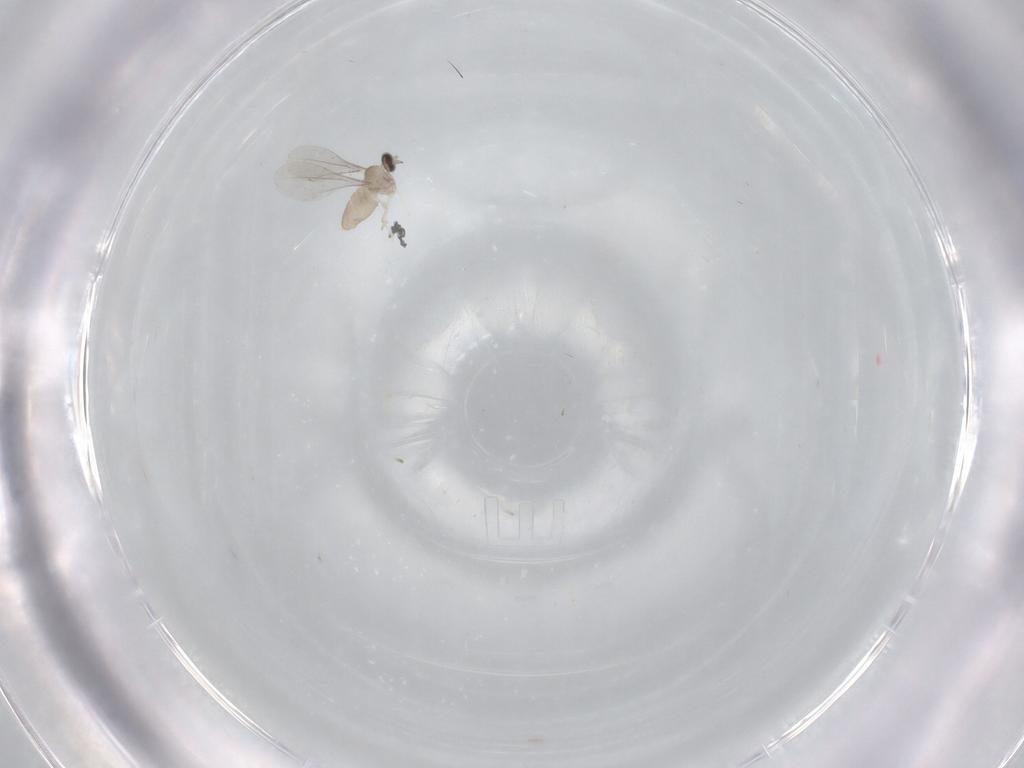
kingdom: Animalia
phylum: Arthropoda
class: Insecta
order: Diptera
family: Cecidomyiidae
